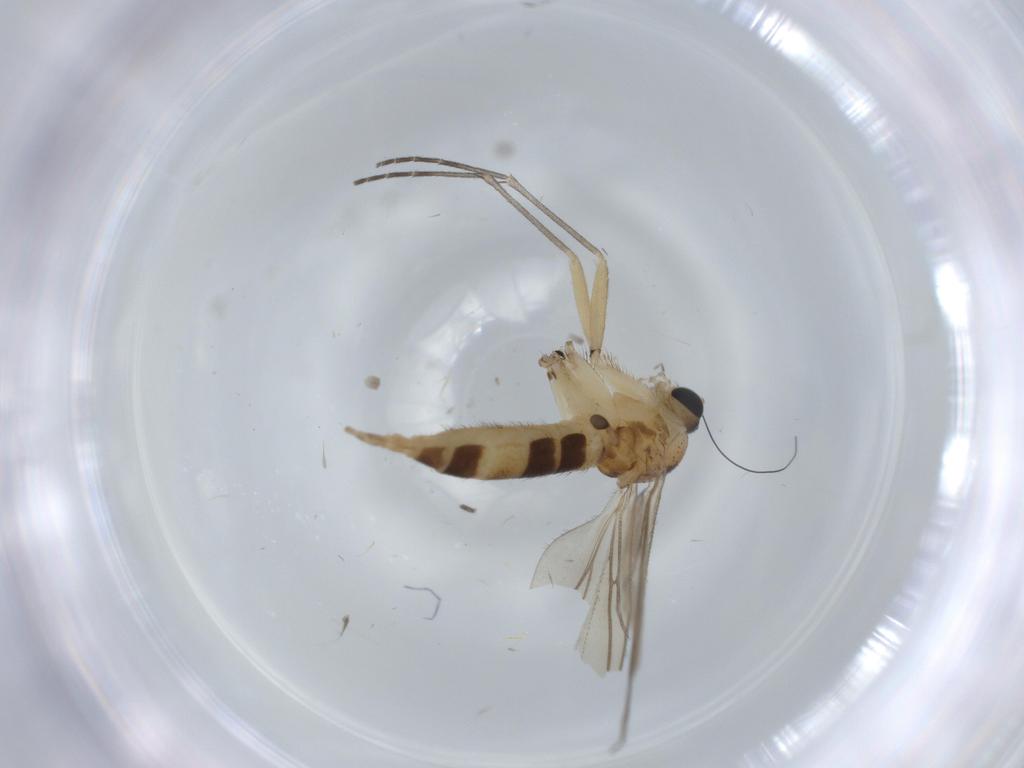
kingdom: Animalia
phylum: Arthropoda
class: Insecta
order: Diptera
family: Sciaridae
